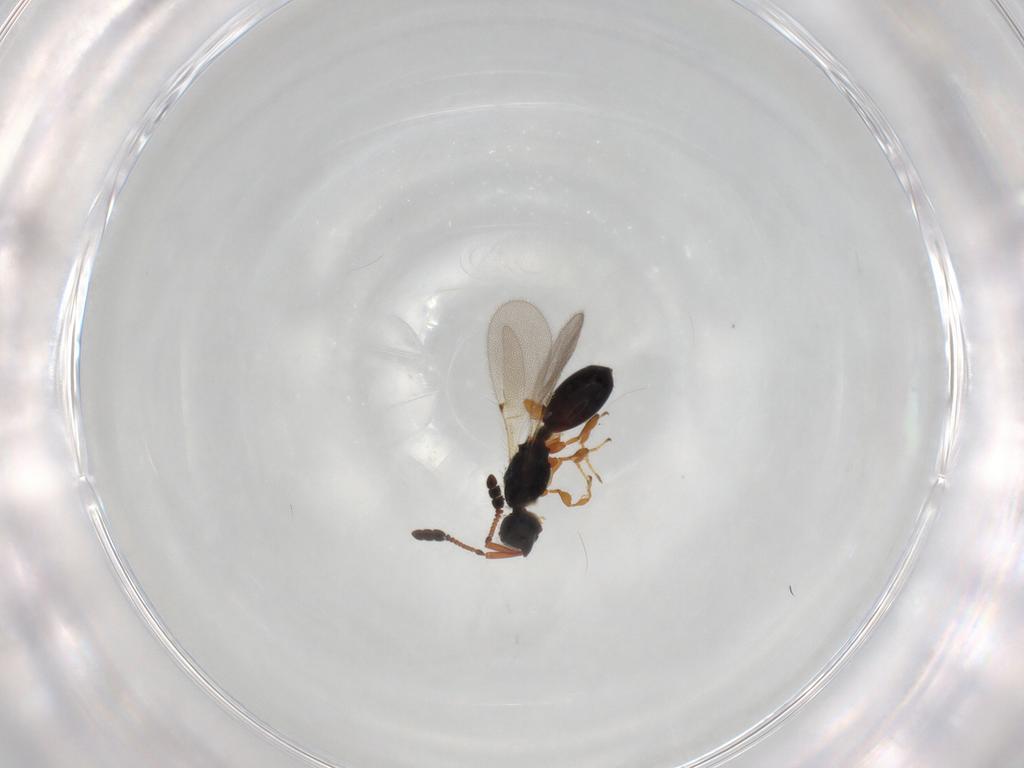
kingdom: Animalia
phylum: Arthropoda
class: Insecta
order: Hymenoptera
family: Diapriidae
